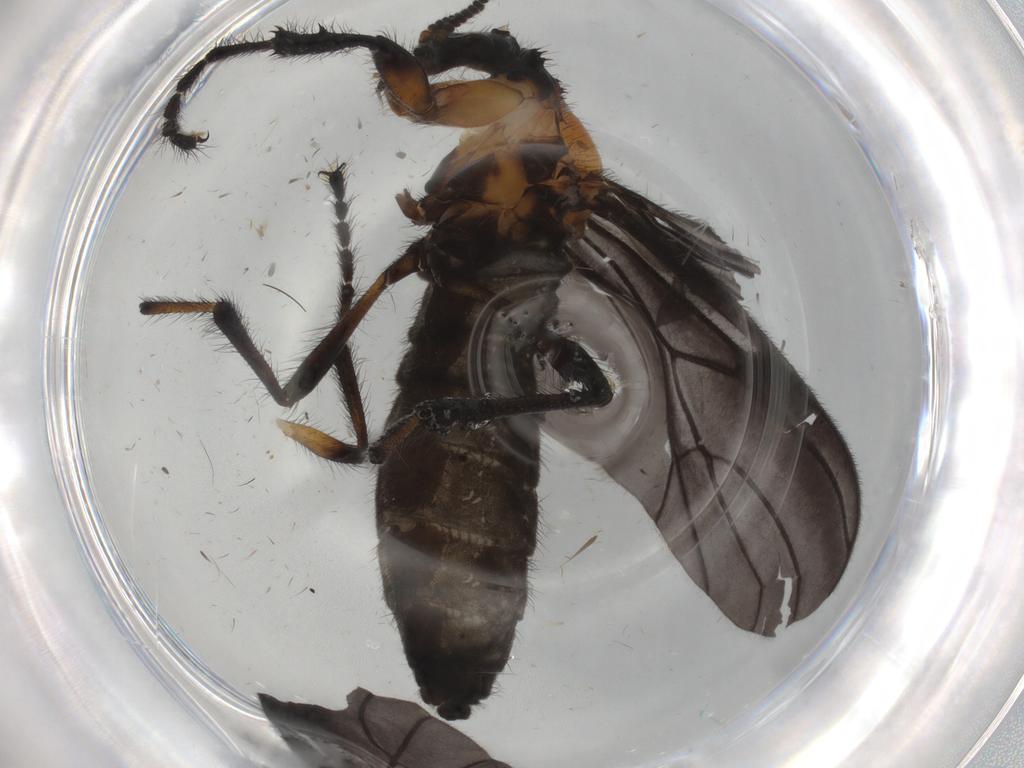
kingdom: Animalia
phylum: Arthropoda
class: Insecta
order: Diptera
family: Bibionidae
